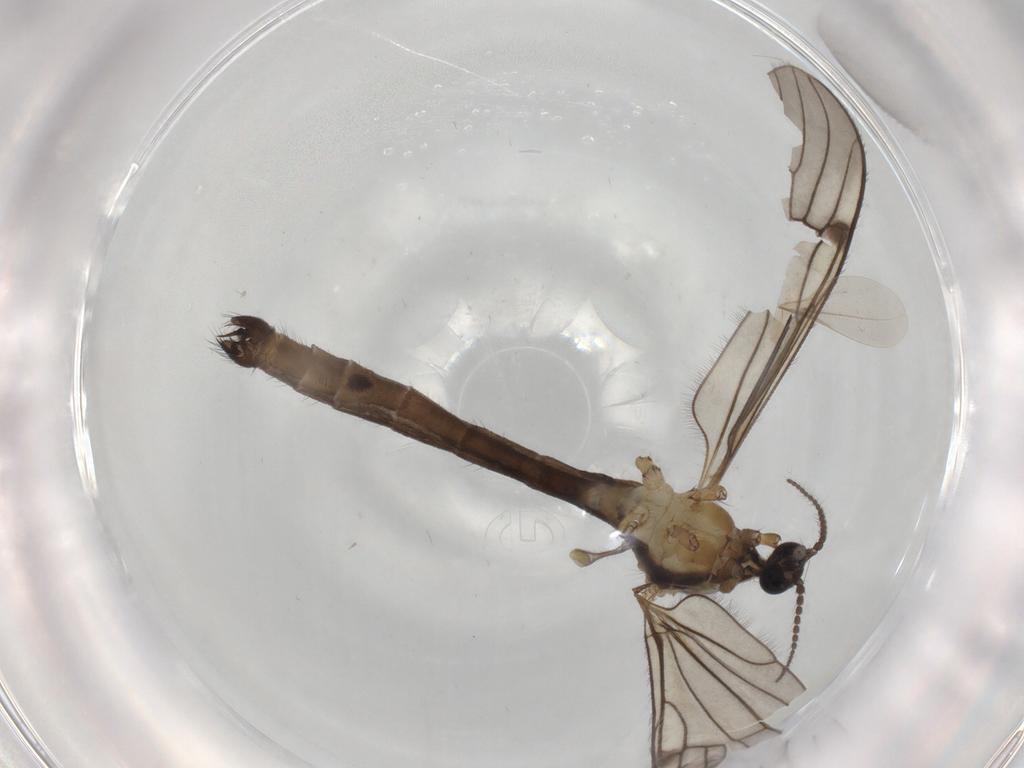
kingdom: Animalia
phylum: Arthropoda
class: Insecta
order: Diptera
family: Limoniidae
